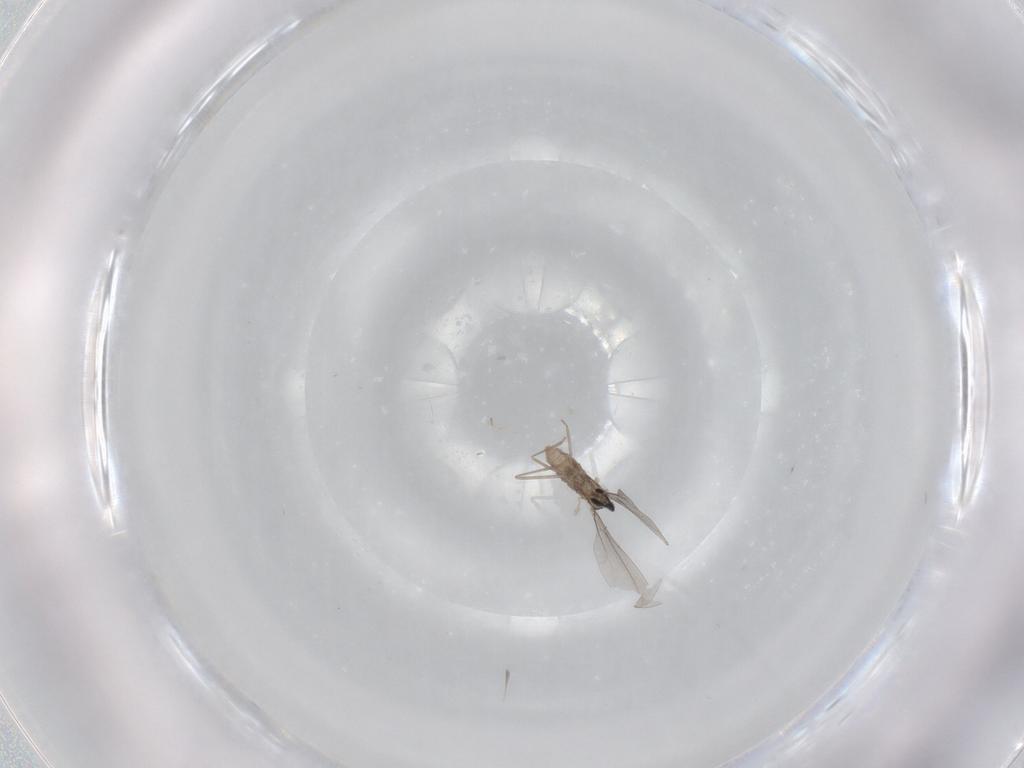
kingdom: Animalia
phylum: Arthropoda
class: Insecta
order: Diptera
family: Cecidomyiidae
